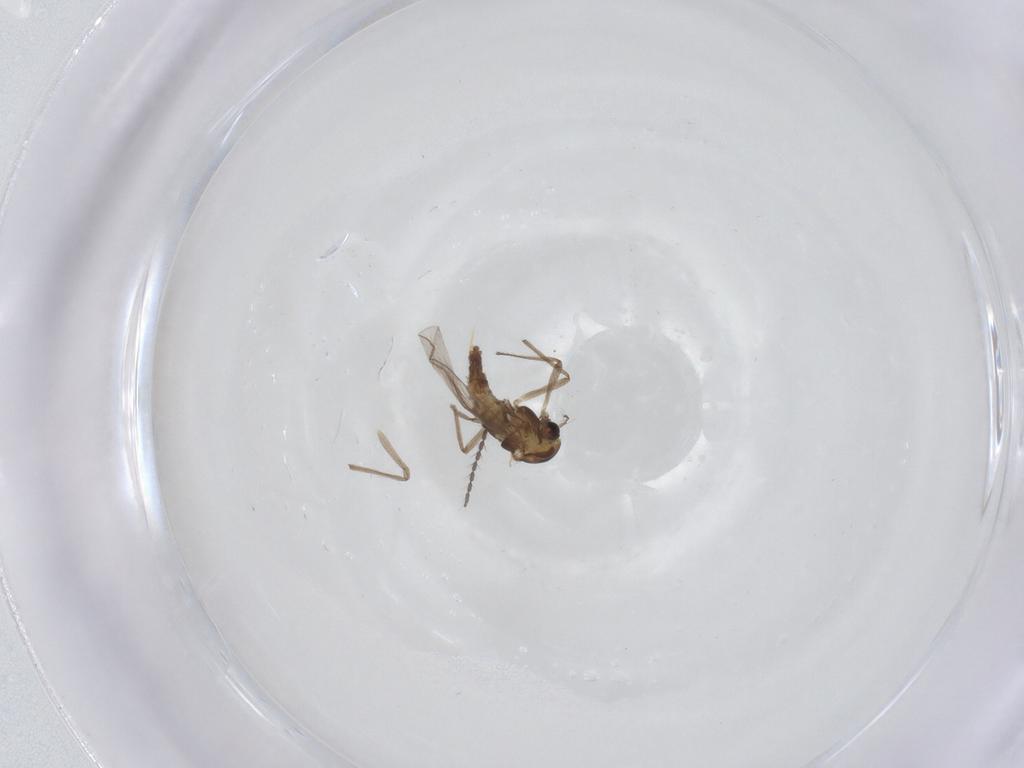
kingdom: Animalia
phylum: Arthropoda
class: Insecta
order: Diptera
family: Chironomidae
